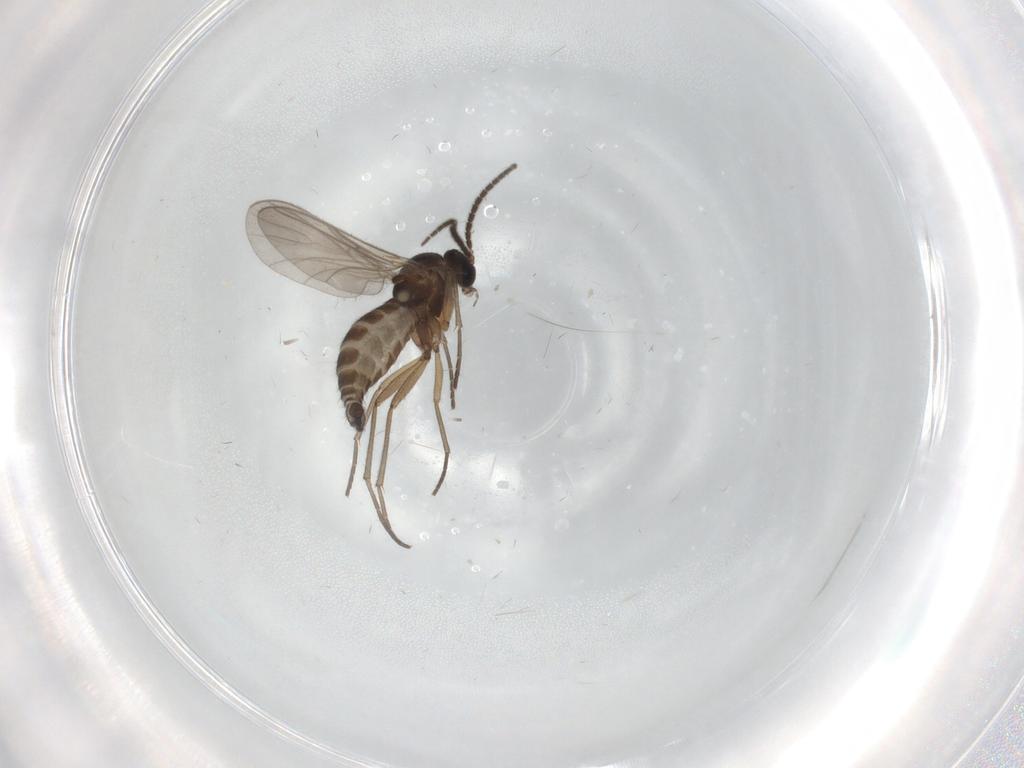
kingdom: Animalia
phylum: Arthropoda
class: Insecta
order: Diptera
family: Sciaridae
